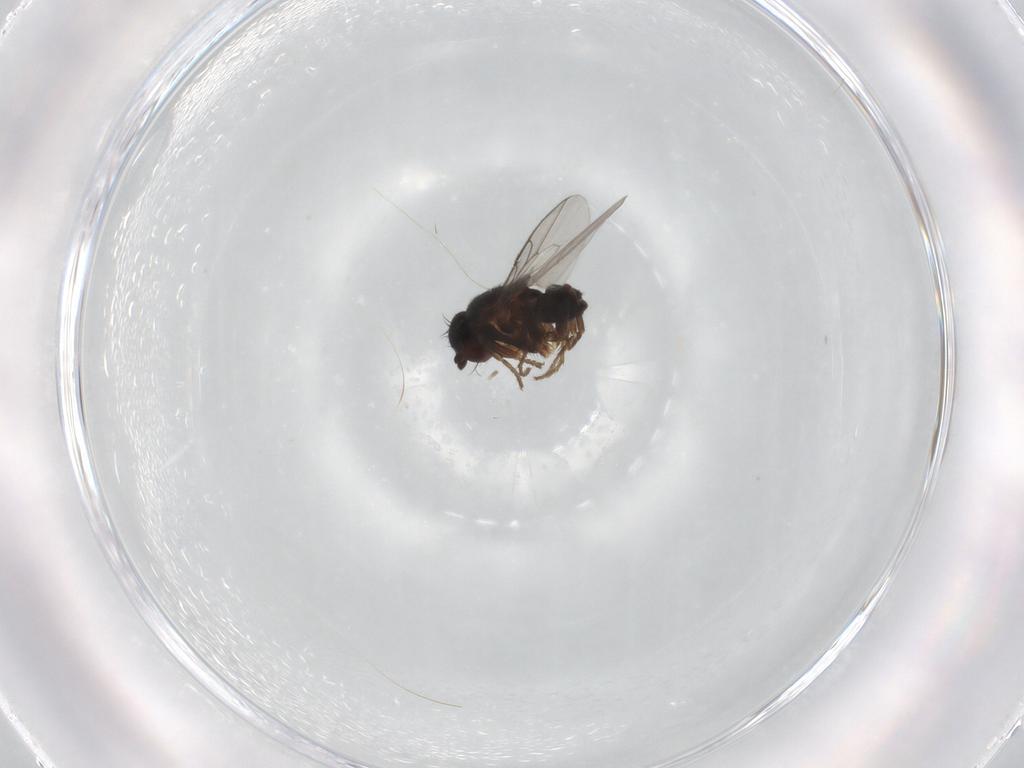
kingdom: Animalia
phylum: Arthropoda
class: Insecta
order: Diptera
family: Sphaeroceridae
